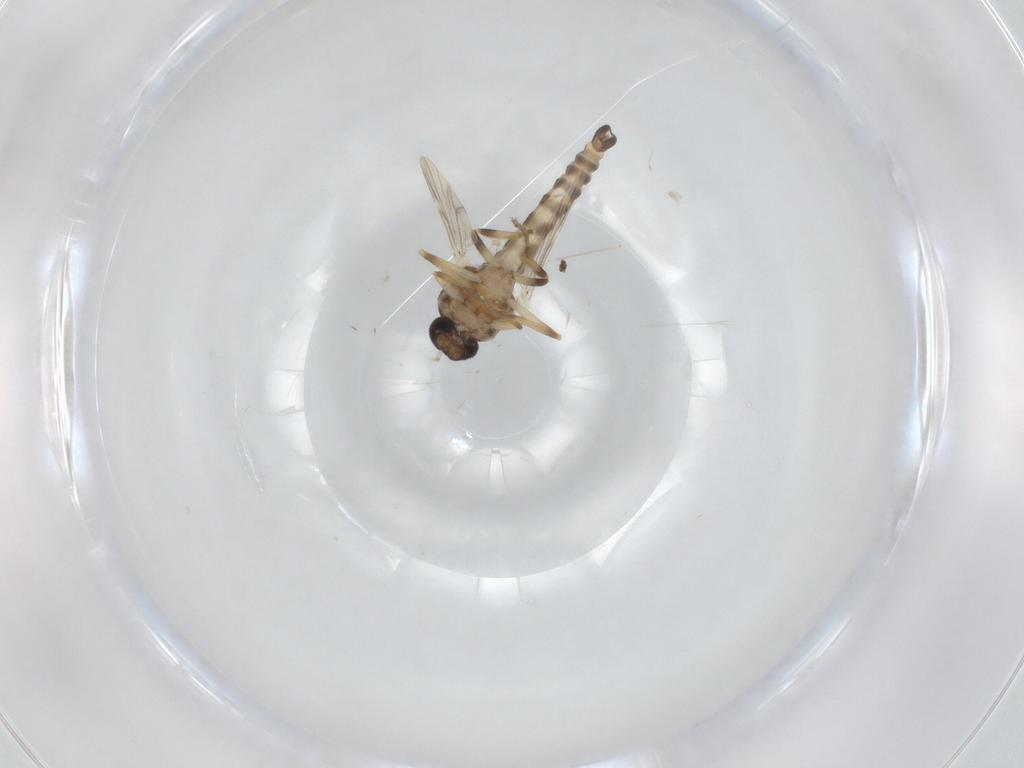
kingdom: Animalia
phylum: Arthropoda
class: Insecta
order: Diptera
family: Ceratopogonidae
